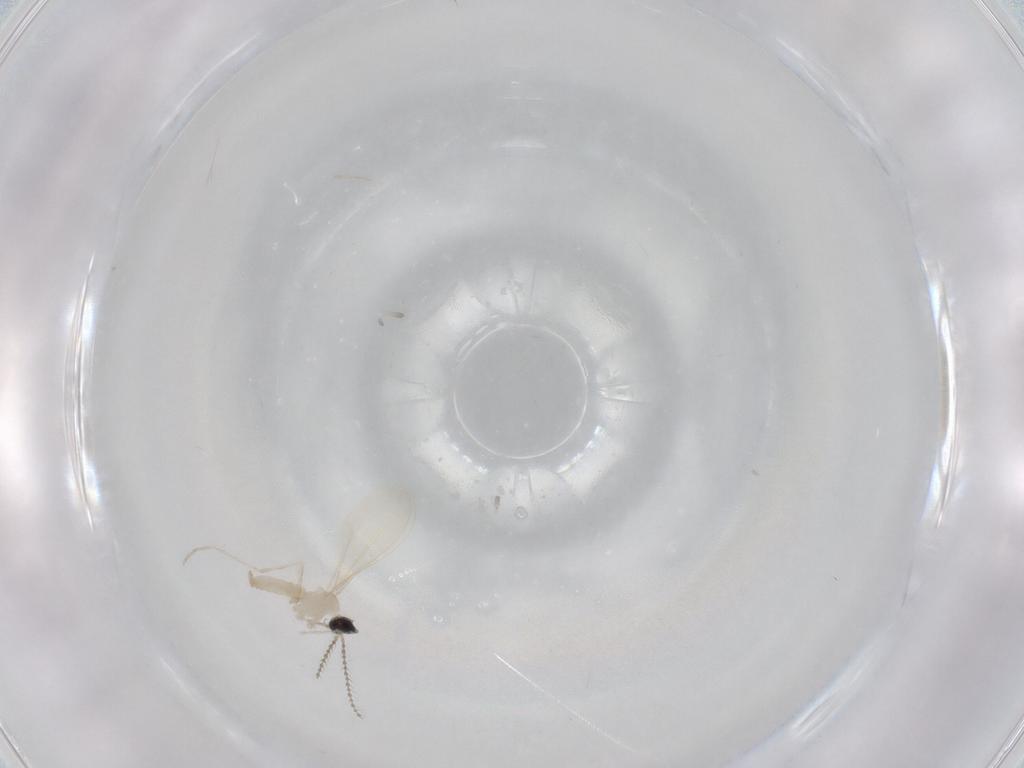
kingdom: Animalia
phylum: Arthropoda
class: Insecta
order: Diptera
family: Cecidomyiidae
